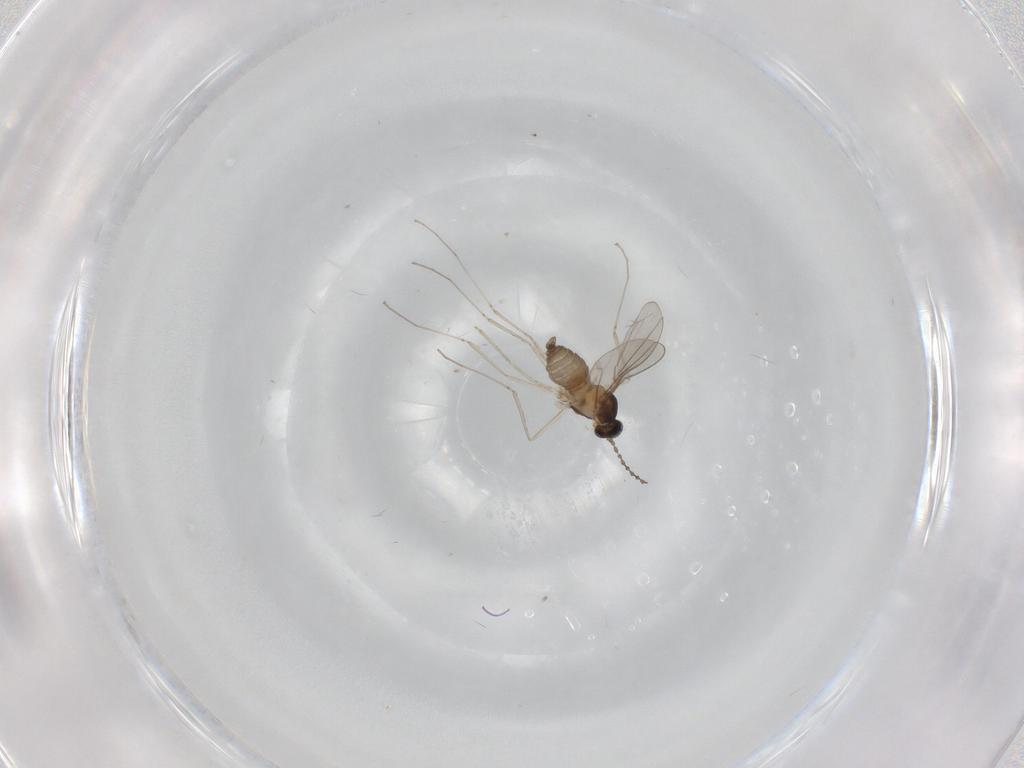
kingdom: Animalia
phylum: Arthropoda
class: Insecta
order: Diptera
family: Cecidomyiidae
